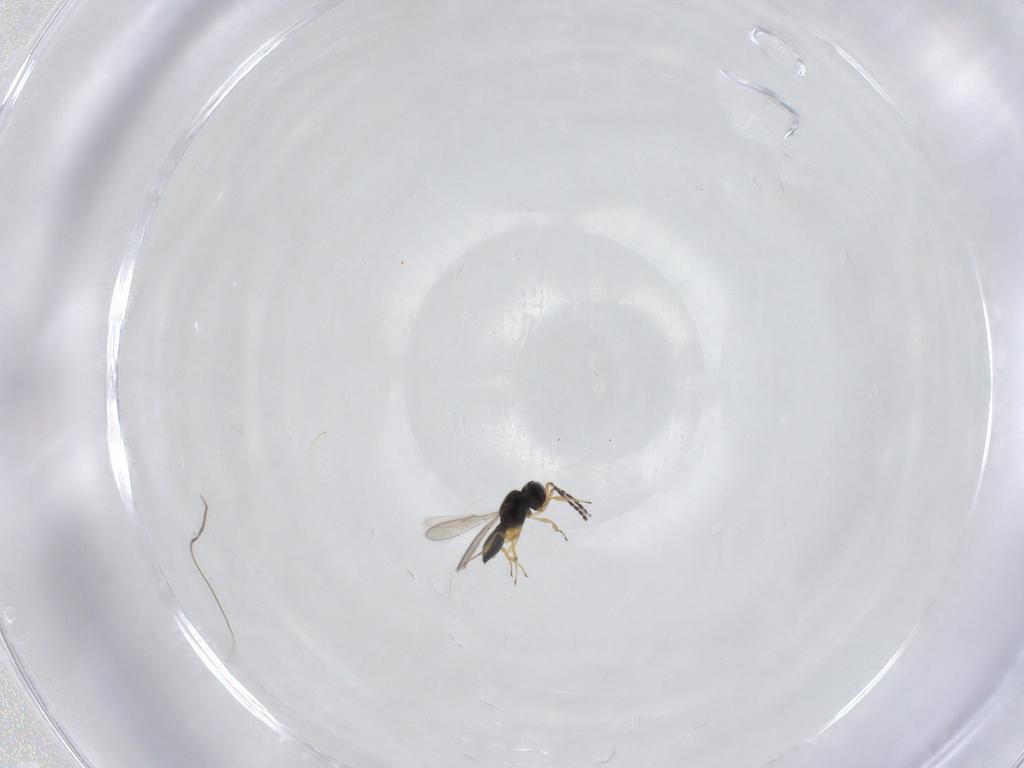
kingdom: Animalia
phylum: Arthropoda
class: Insecta
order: Hymenoptera
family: Scelionidae
